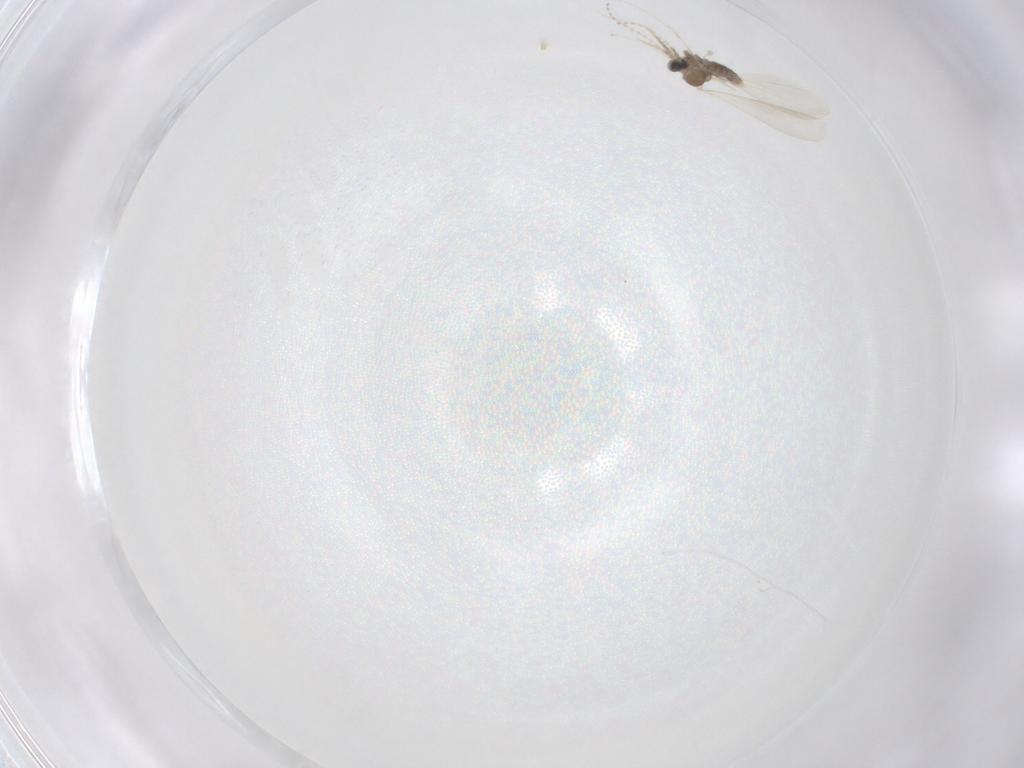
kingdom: Animalia
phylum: Arthropoda
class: Insecta
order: Diptera
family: Cecidomyiidae
